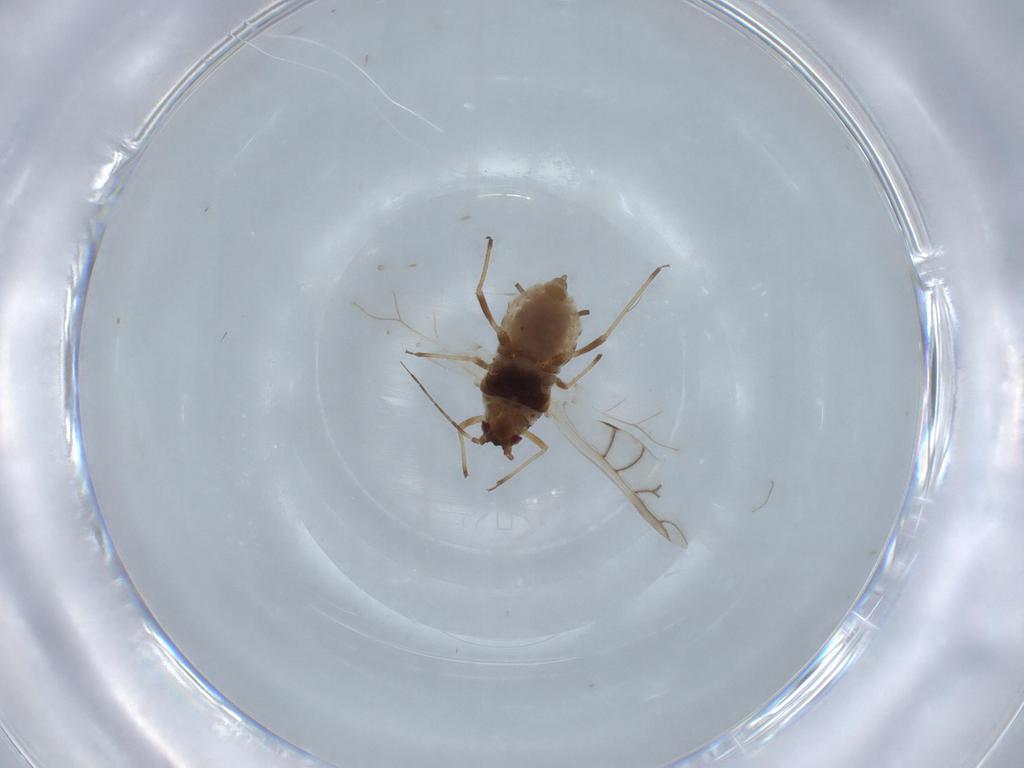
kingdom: Animalia
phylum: Arthropoda
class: Insecta
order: Hemiptera
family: Aphididae
